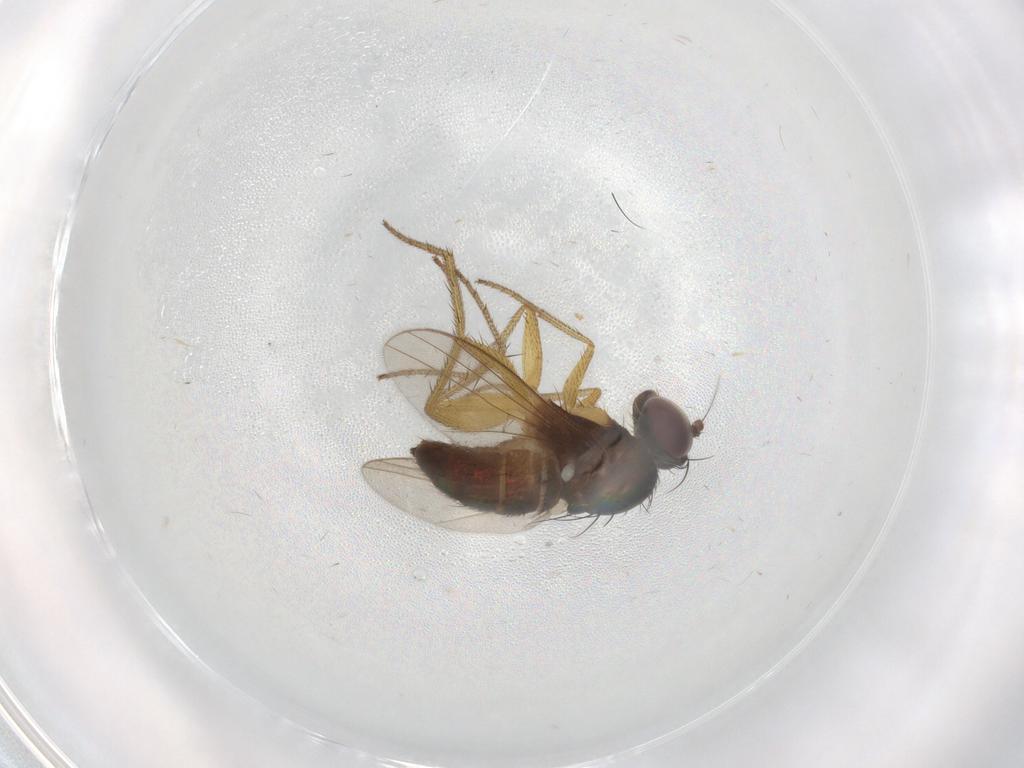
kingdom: Animalia
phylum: Arthropoda
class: Insecta
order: Diptera
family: Dolichopodidae
